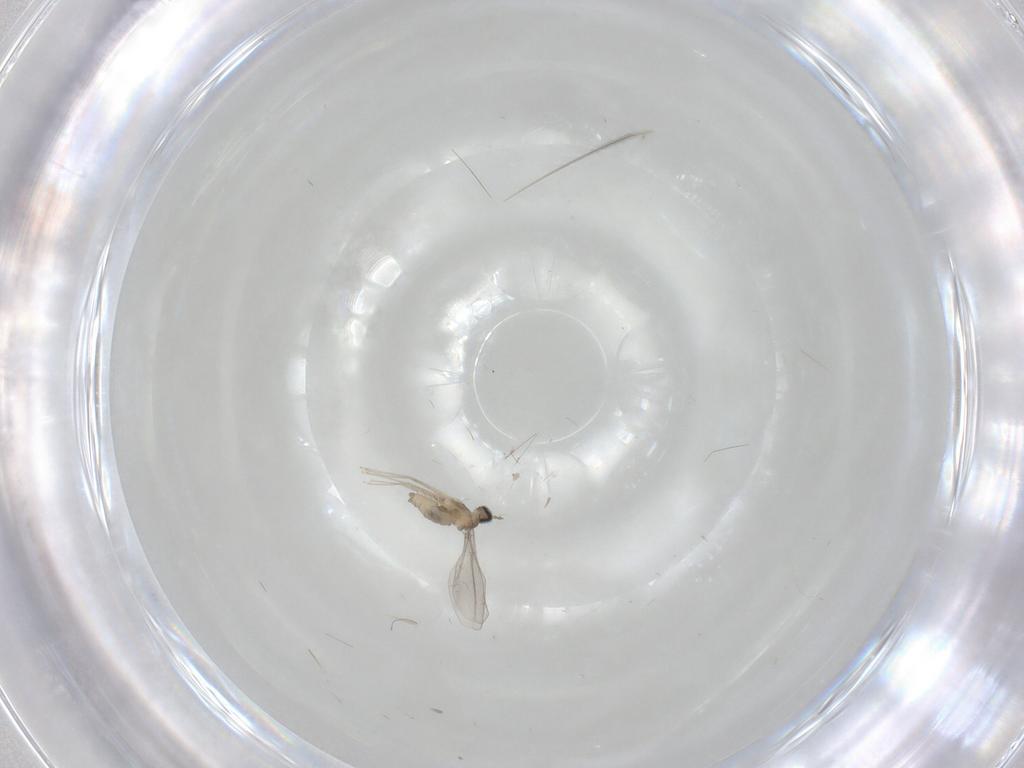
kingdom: Animalia
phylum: Arthropoda
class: Insecta
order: Diptera
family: Cecidomyiidae
